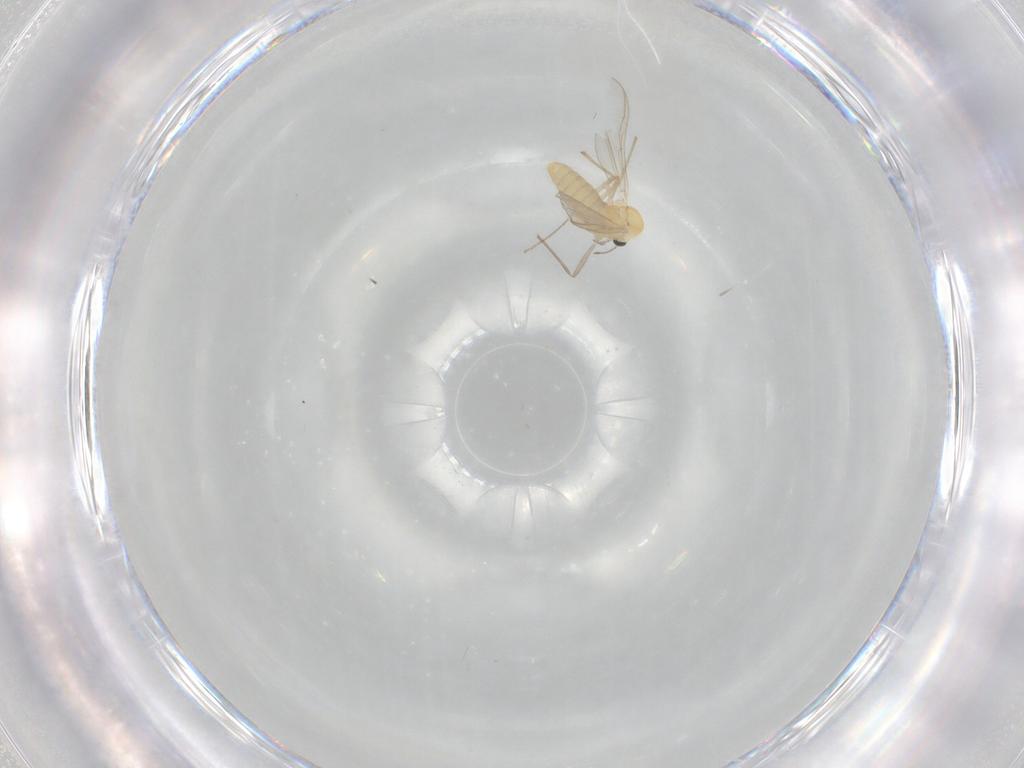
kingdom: Animalia
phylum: Arthropoda
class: Insecta
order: Diptera
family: Chironomidae
